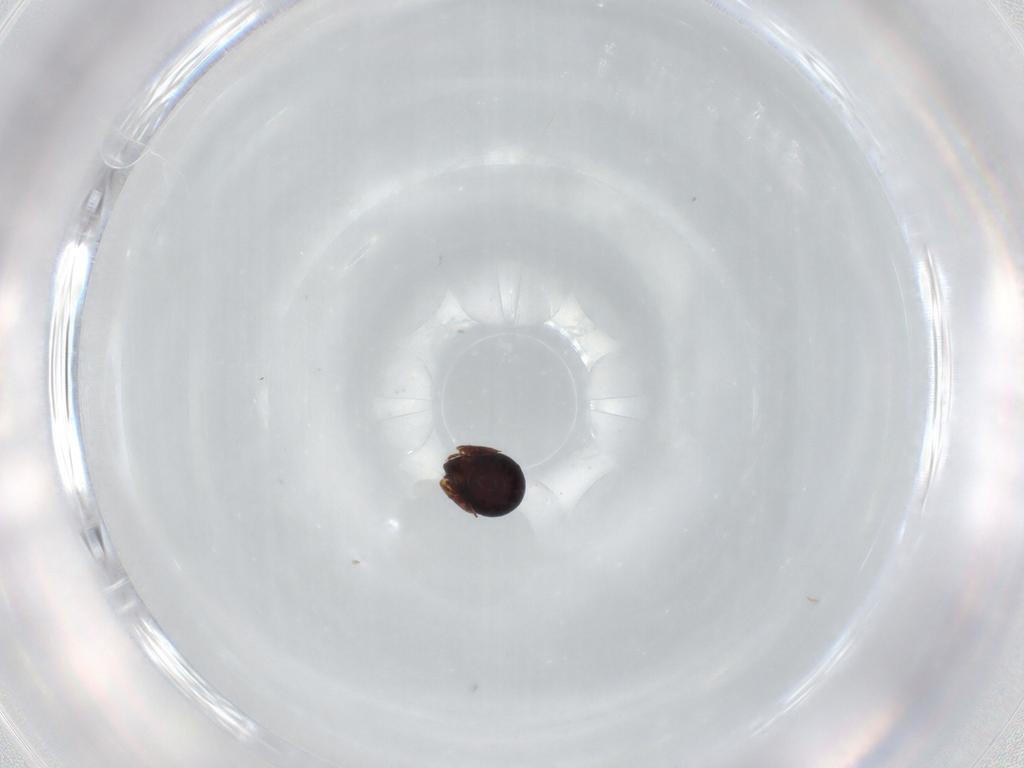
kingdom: Animalia
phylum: Arthropoda
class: Arachnida
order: Sarcoptiformes
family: Ceratozetidae
